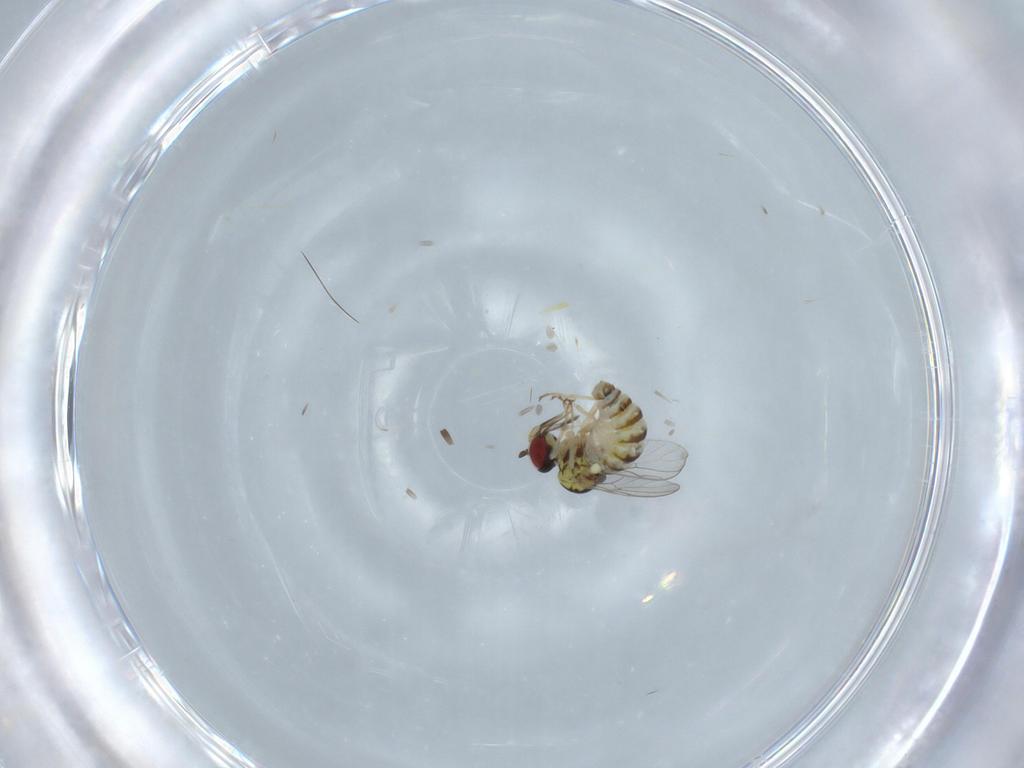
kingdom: Animalia
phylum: Arthropoda
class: Insecta
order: Diptera
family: Bombyliidae
